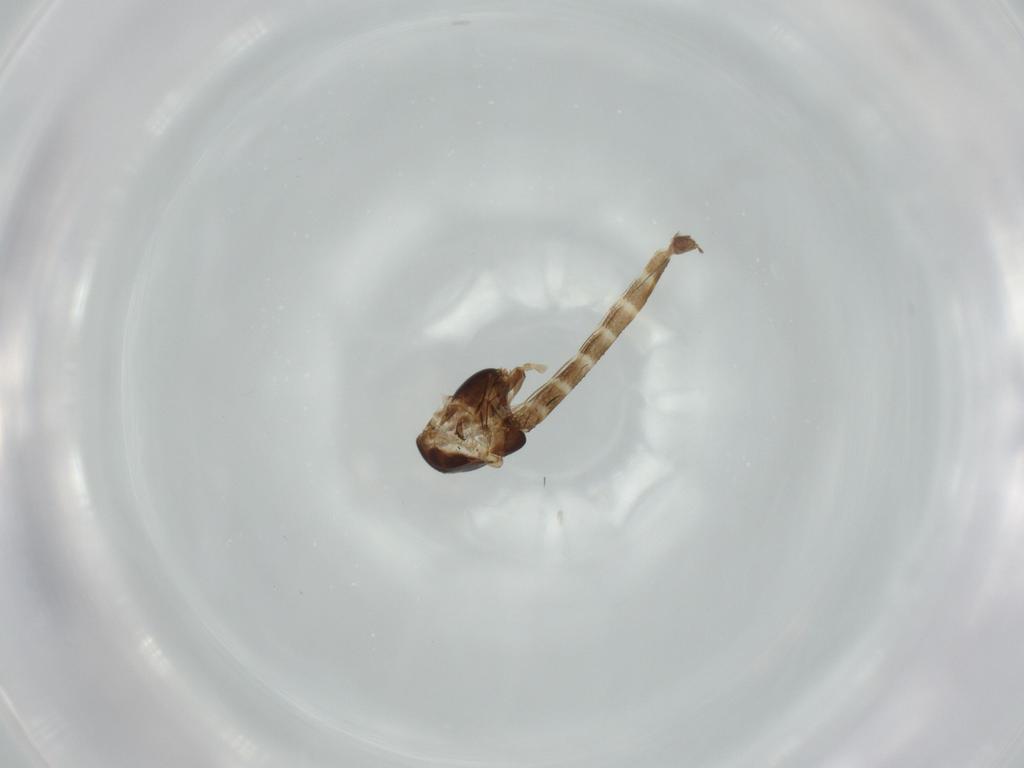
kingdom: Animalia
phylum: Arthropoda
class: Insecta
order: Diptera
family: Chironomidae
